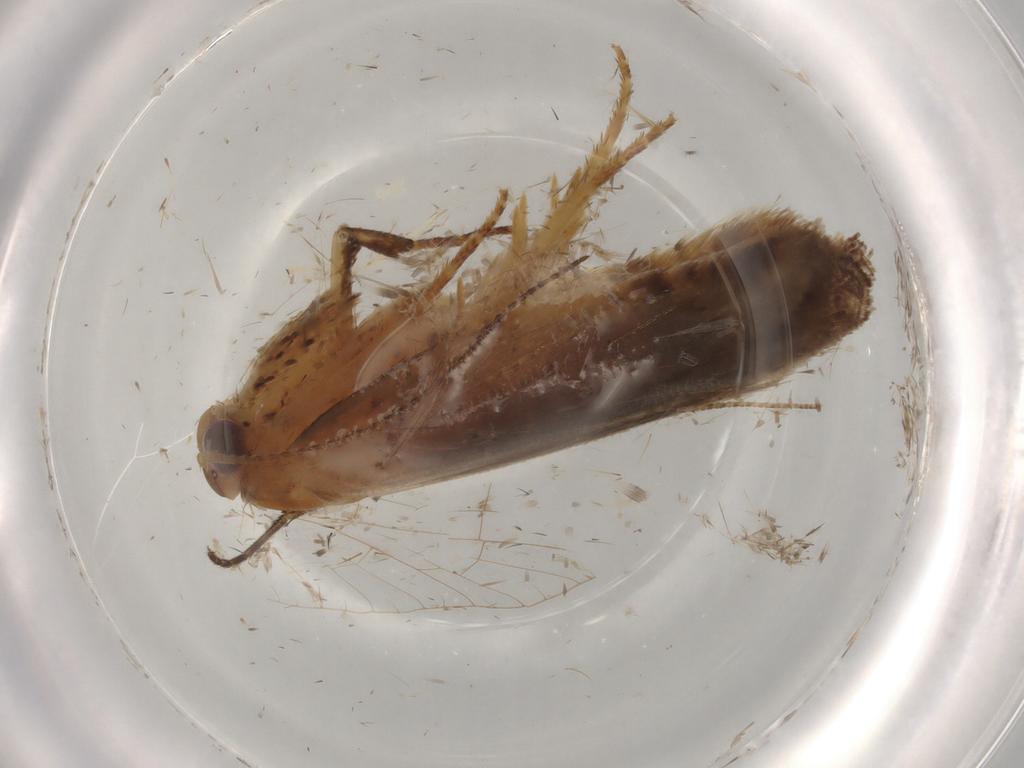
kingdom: Animalia
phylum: Arthropoda
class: Insecta
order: Lepidoptera
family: Gelechiidae
